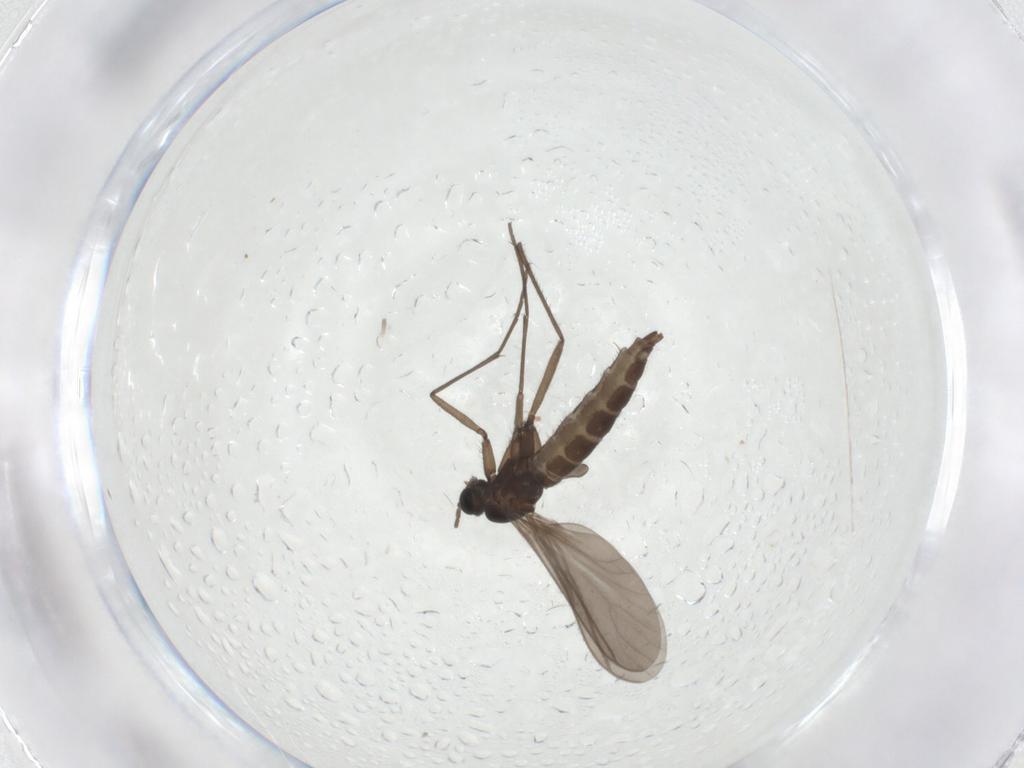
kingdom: Animalia
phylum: Arthropoda
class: Insecta
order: Diptera
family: Sciaridae
